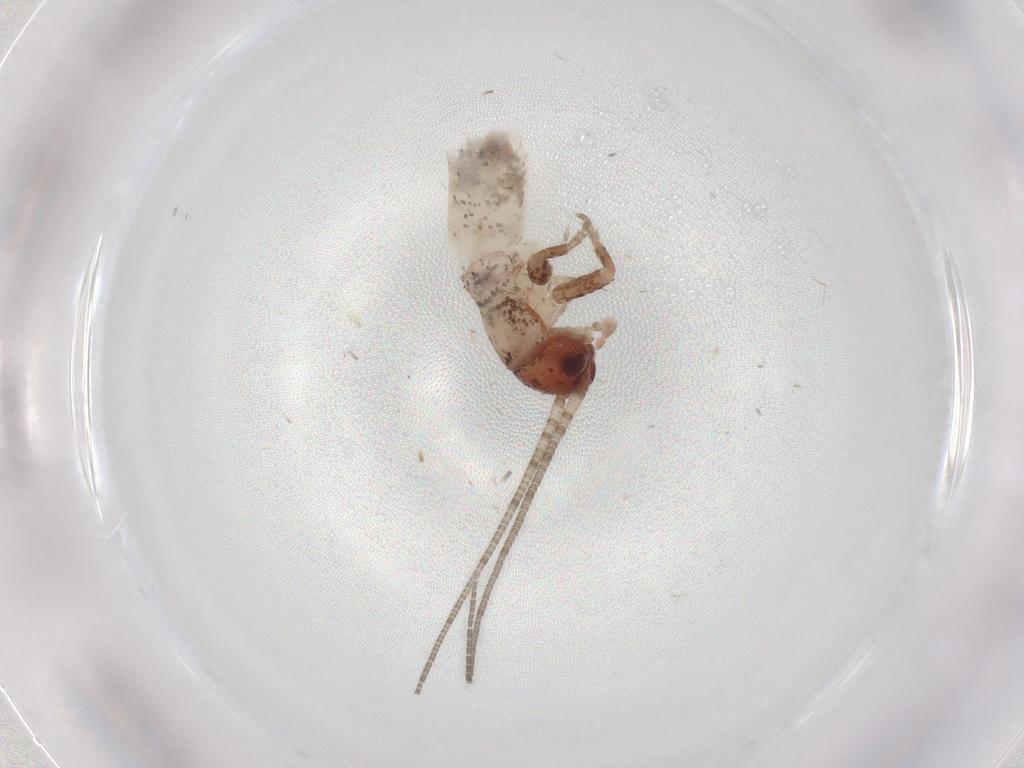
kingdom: Animalia
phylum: Arthropoda
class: Insecta
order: Orthoptera
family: Mogoplistidae
